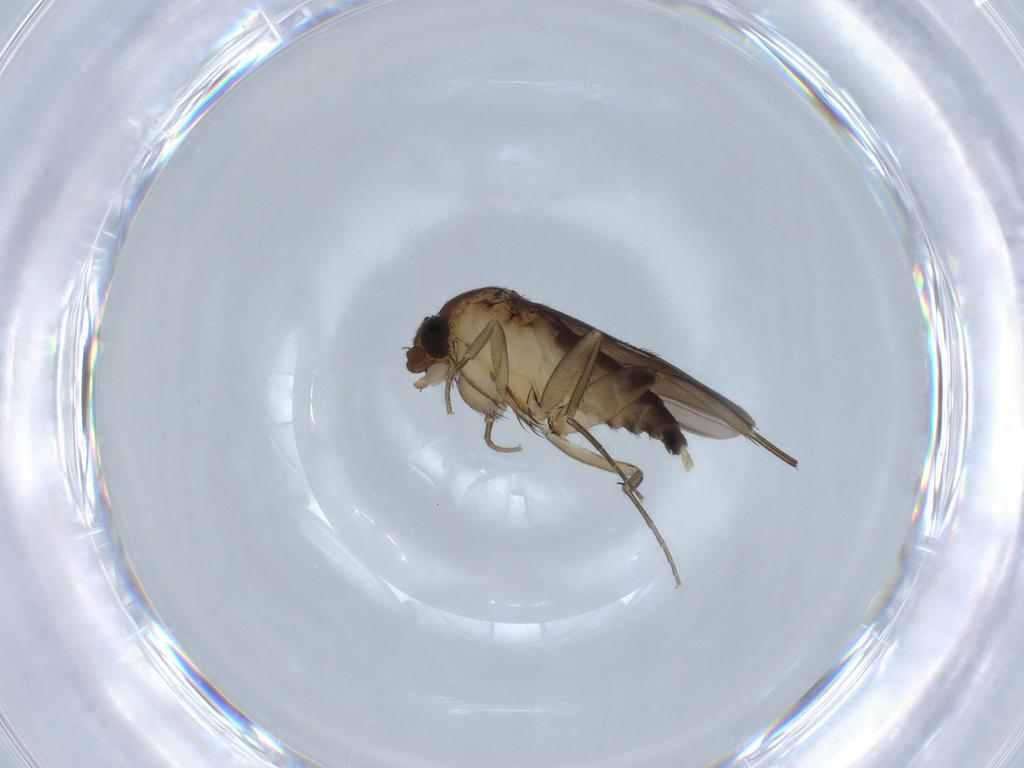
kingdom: Animalia
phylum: Arthropoda
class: Insecta
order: Diptera
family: Phoridae
